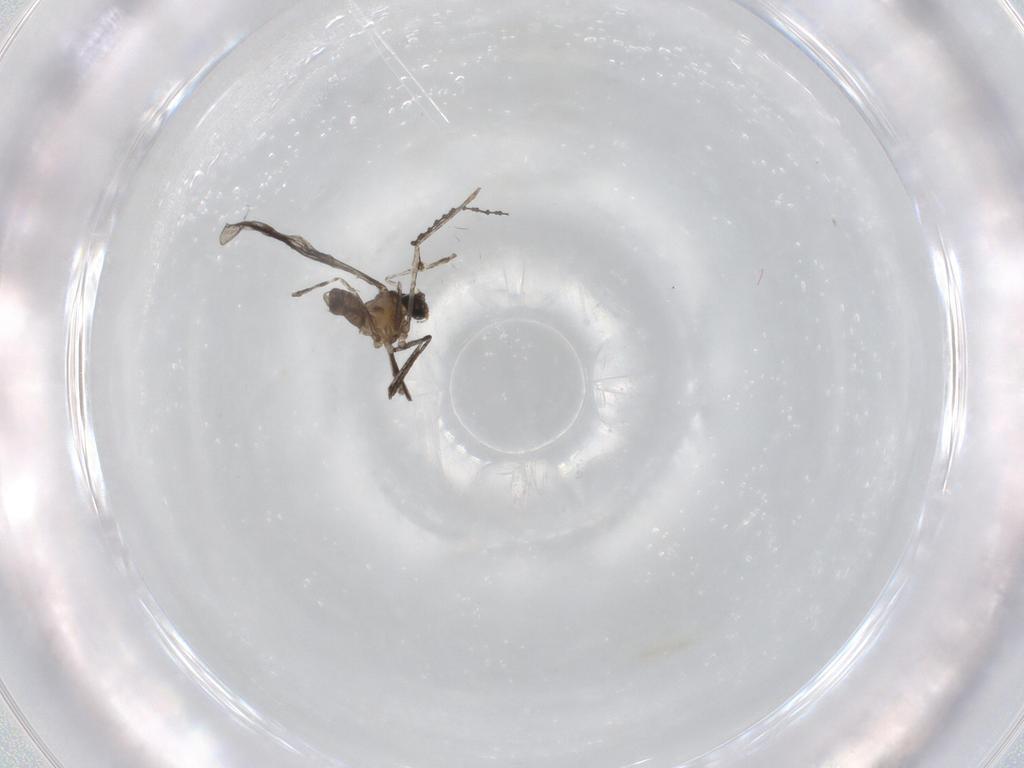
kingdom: Animalia
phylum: Arthropoda
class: Insecta
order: Diptera
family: Cecidomyiidae
